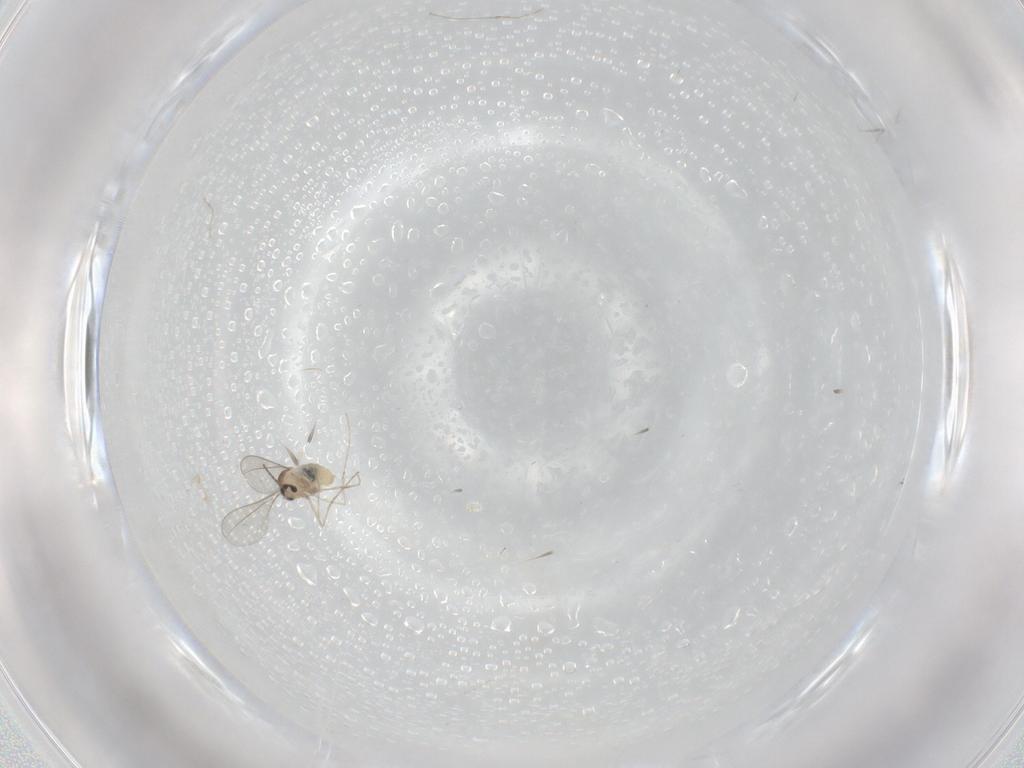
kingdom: Animalia
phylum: Arthropoda
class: Insecta
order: Diptera
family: Cecidomyiidae
